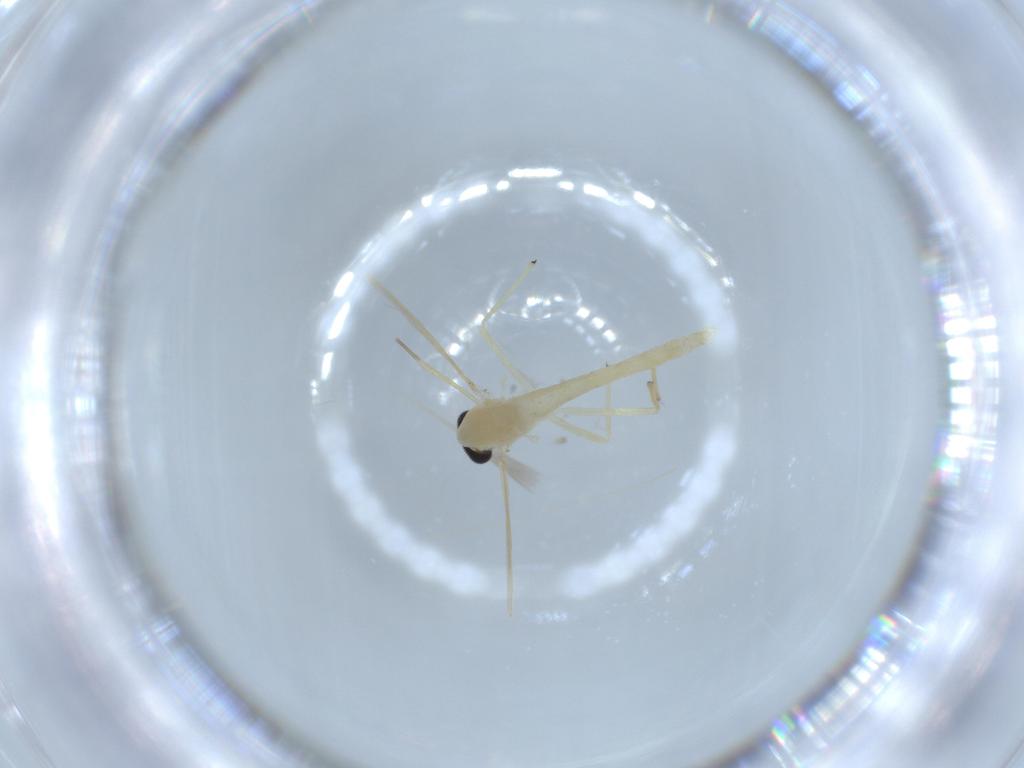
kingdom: Animalia
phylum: Arthropoda
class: Insecta
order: Diptera
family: Chironomidae
